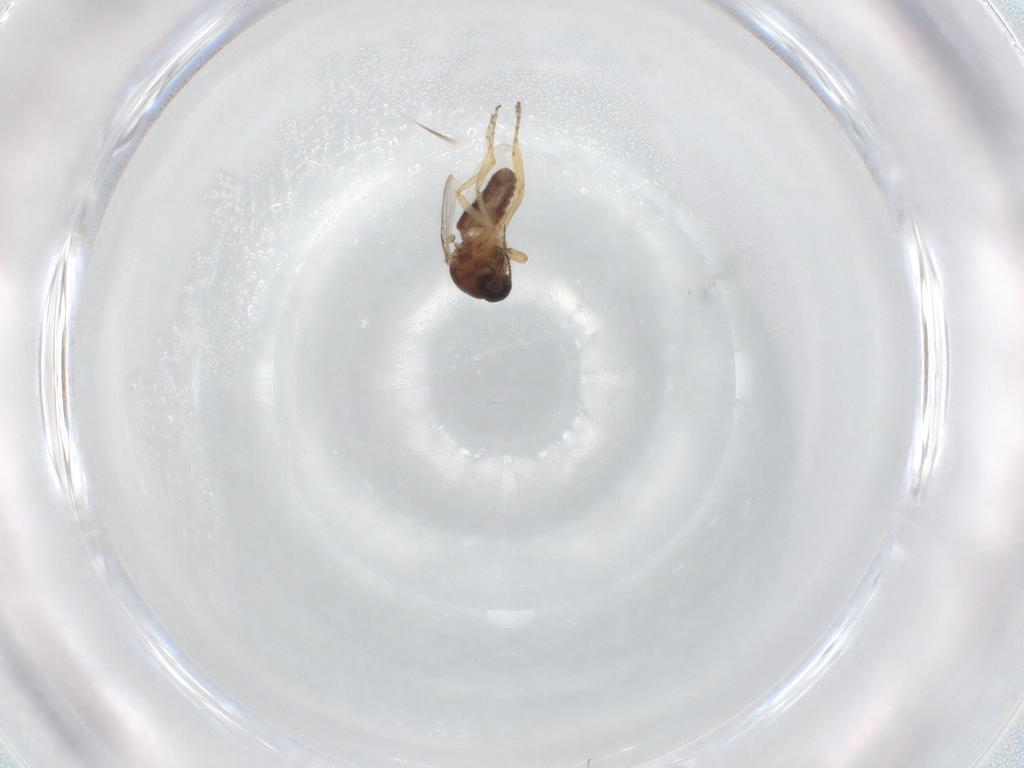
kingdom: Animalia
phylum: Arthropoda
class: Insecta
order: Diptera
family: Ceratopogonidae
